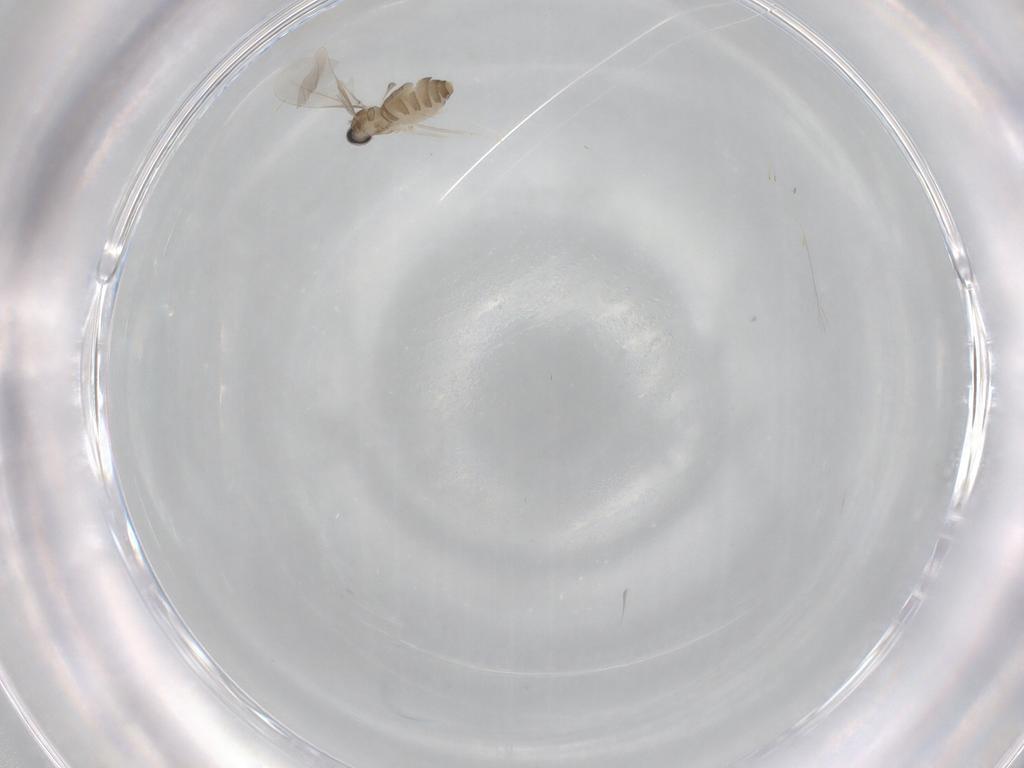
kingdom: Animalia
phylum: Arthropoda
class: Insecta
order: Diptera
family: Cecidomyiidae
